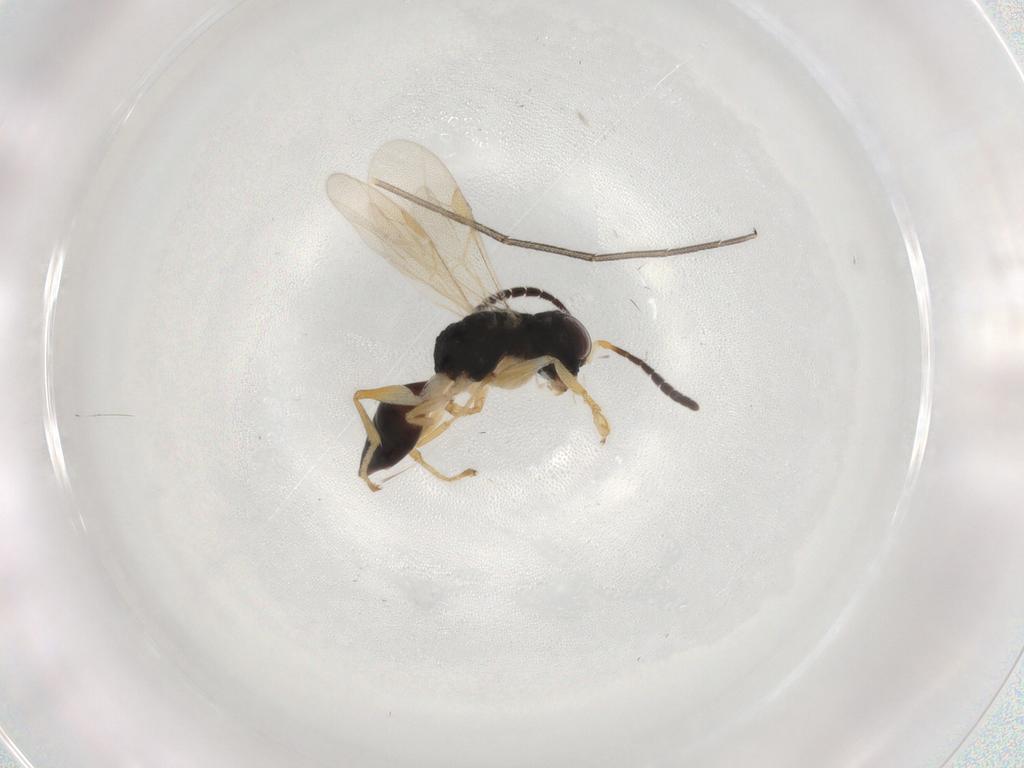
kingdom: Animalia
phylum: Arthropoda
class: Insecta
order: Hymenoptera
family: Dryinidae
